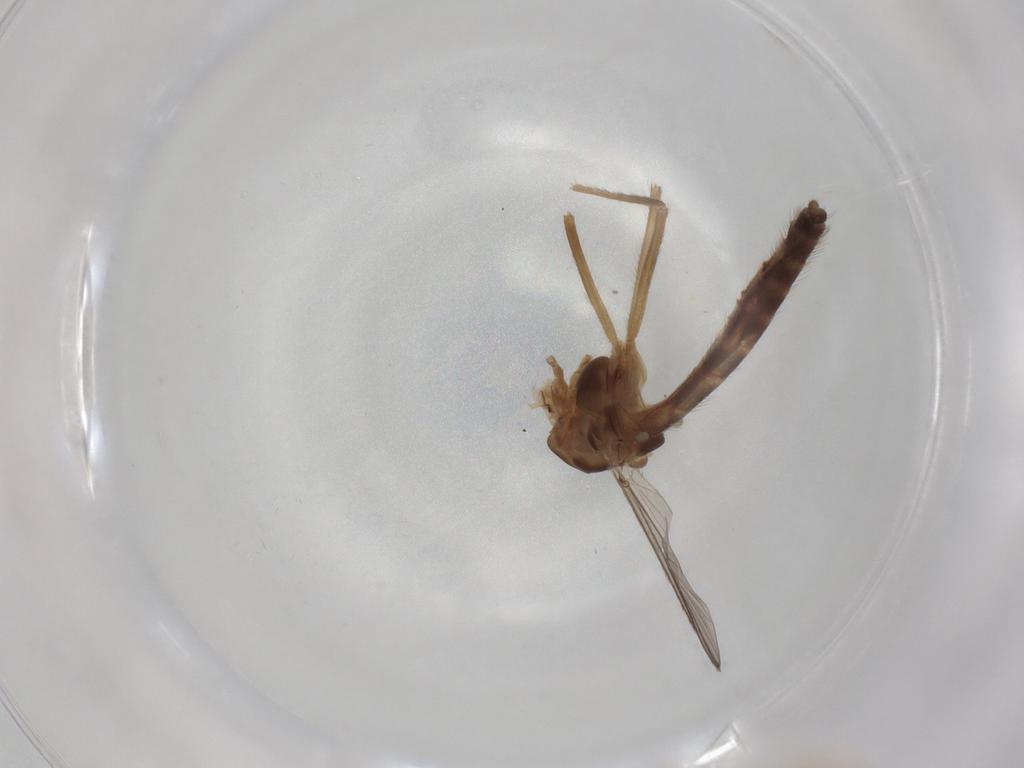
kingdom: Animalia
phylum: Arthropoda
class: Insecta
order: Diptera
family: Chironomidae
